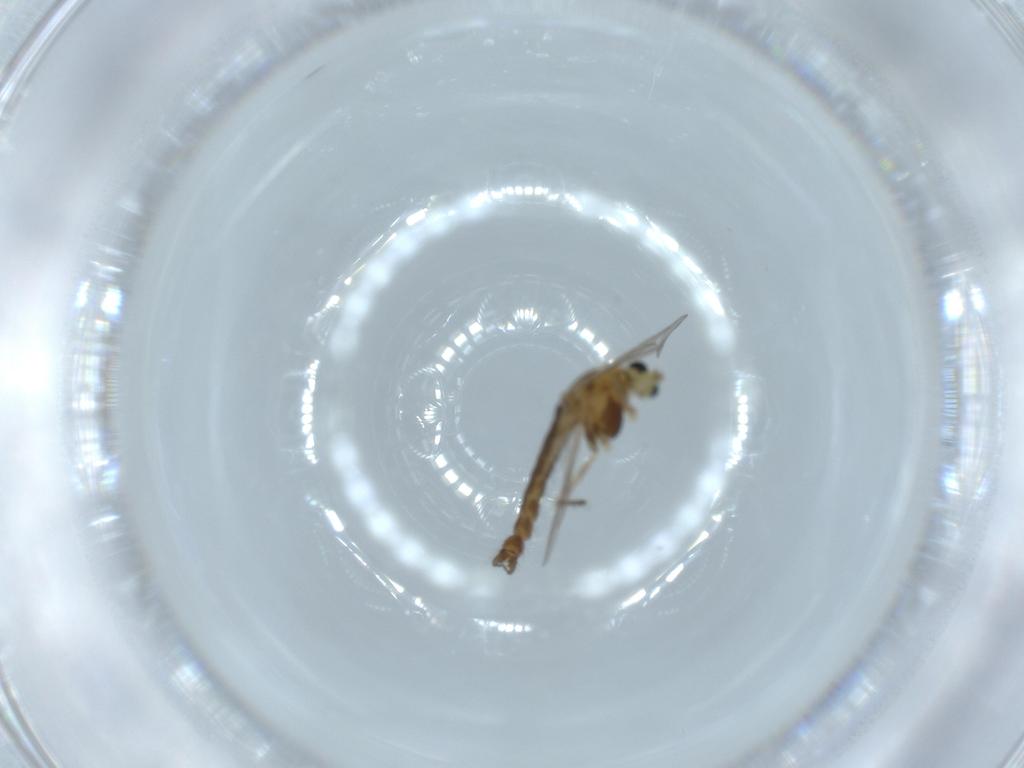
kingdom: Animalia
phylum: Arthropoda
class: Insecta
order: Diptera
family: Chironomidae
